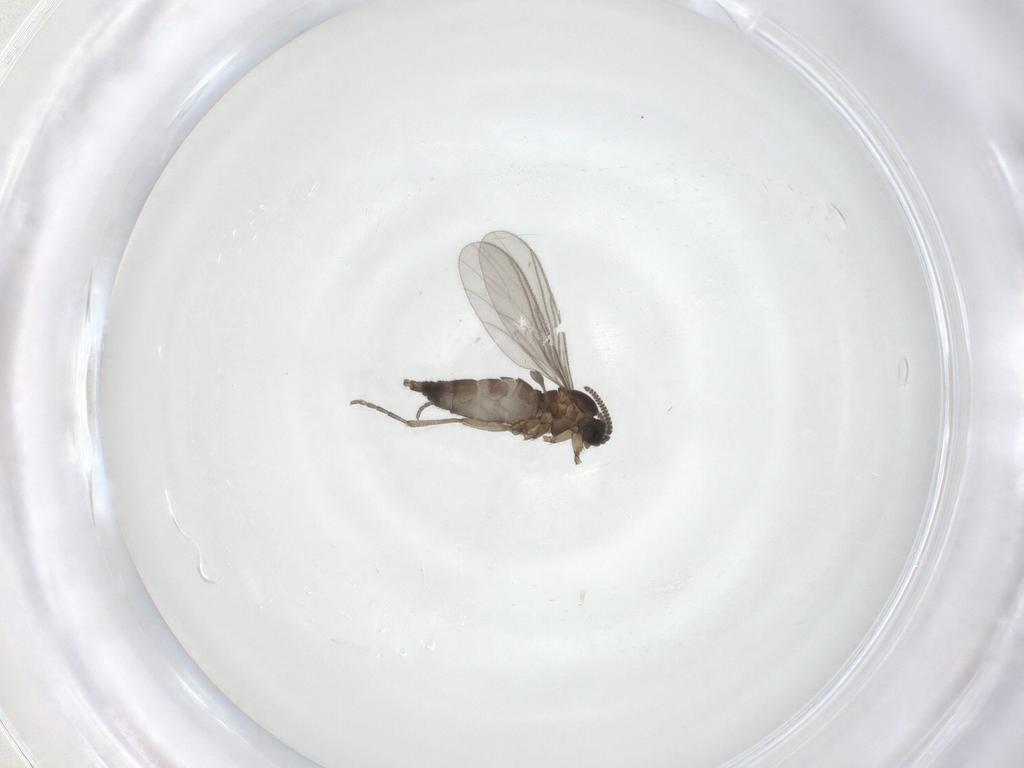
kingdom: Animalia
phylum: Arthropoda
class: Insecta
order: Diptera
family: Sciaridae
